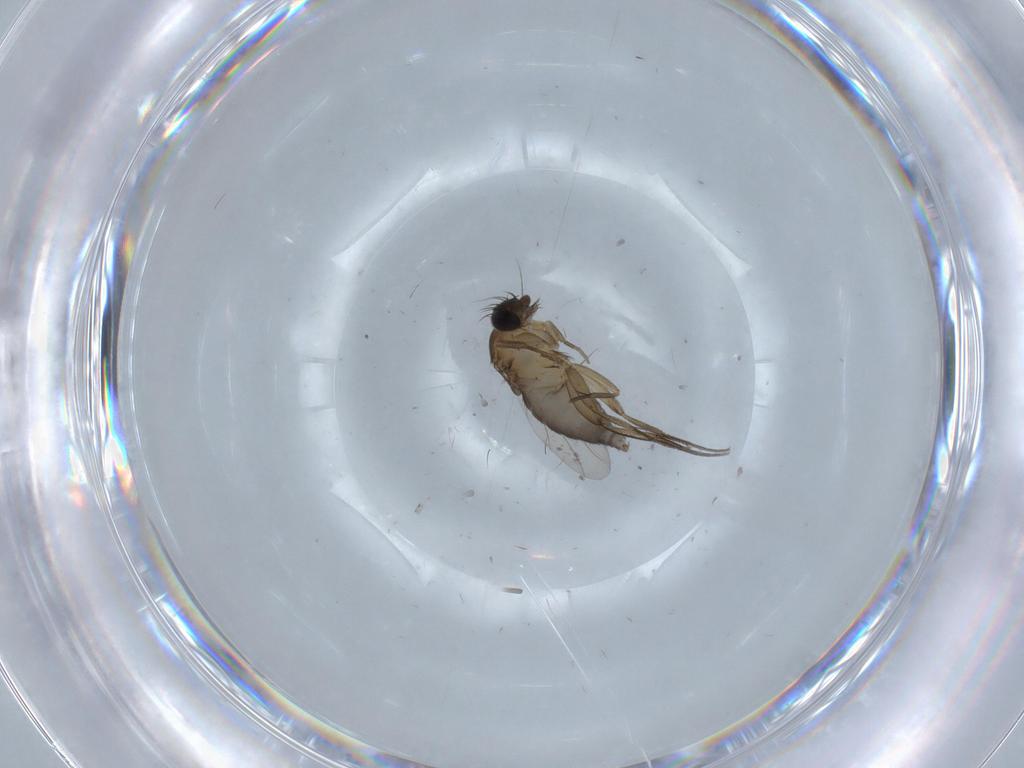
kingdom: Animalia
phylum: Arthropoda
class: Insecta
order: Diptera
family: Phoridae
